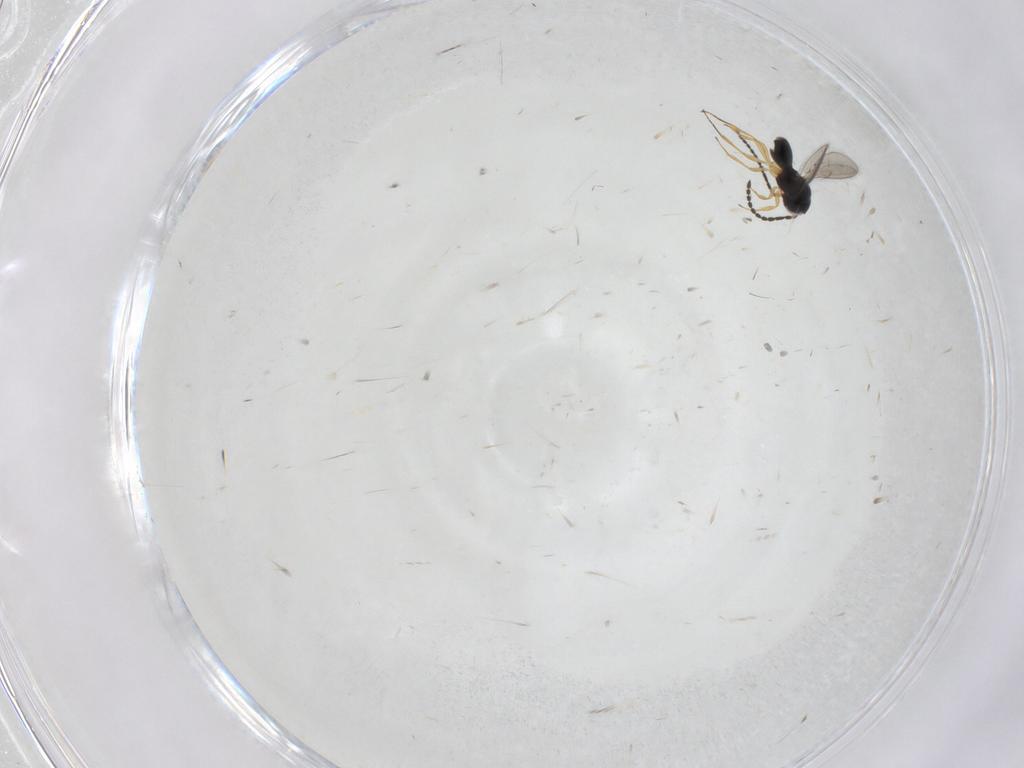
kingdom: Animalia
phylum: Arthropoda
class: Insecta
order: Hymenoptera
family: Scelionidae
